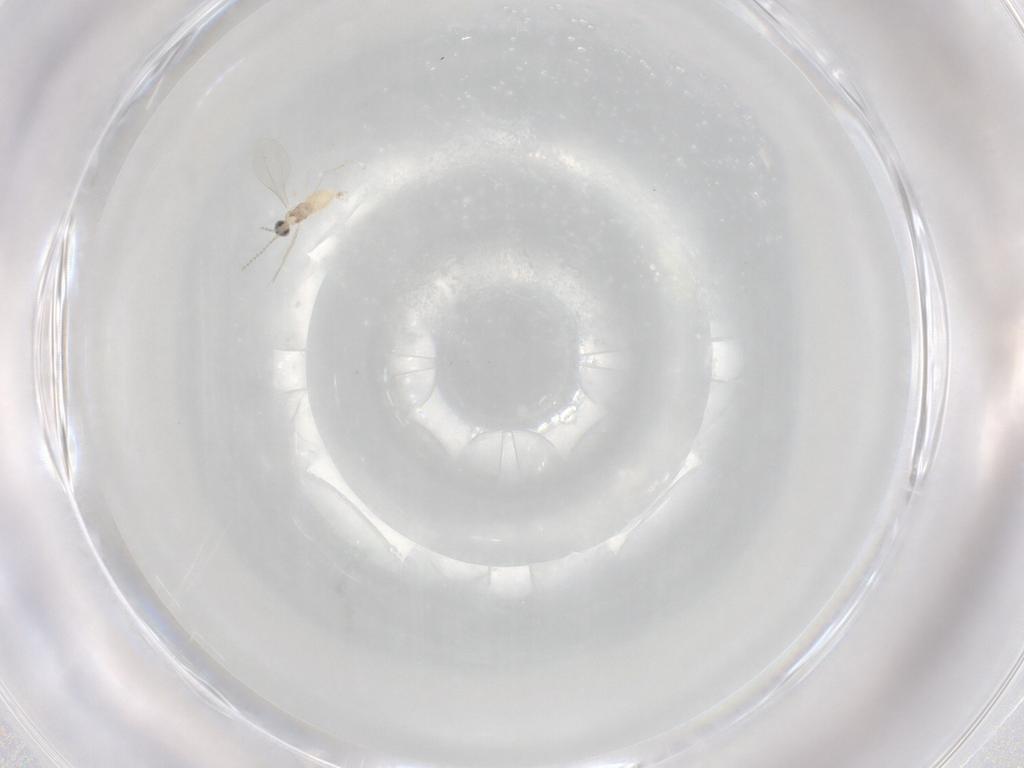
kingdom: Animalia
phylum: Arthropoda
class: Insecta
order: Diptera
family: Cecidomyiidae
